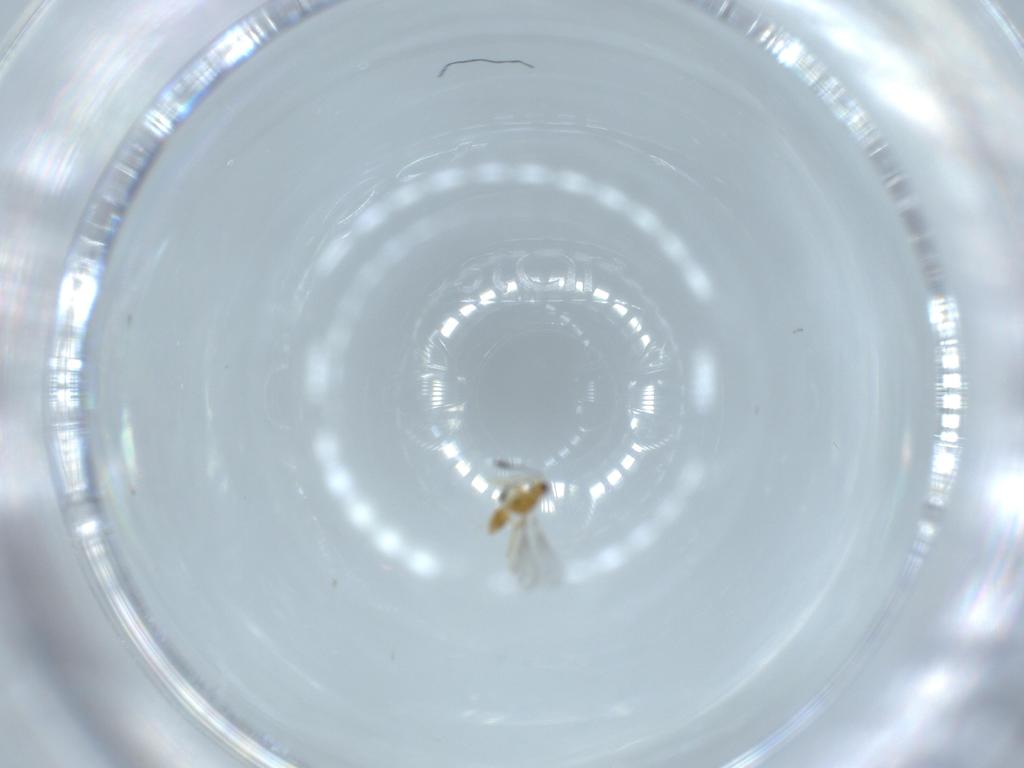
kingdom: Animalia
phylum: Arthropoda
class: Insecta
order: Hymenoptera
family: Mymaridae
